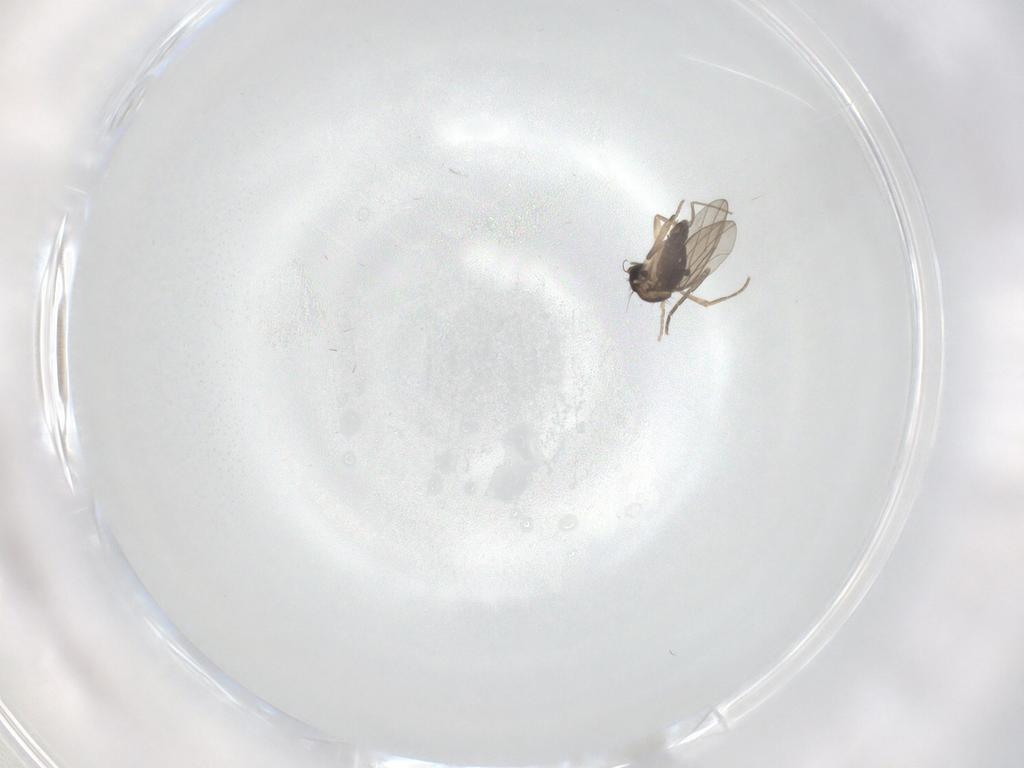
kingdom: Animalia
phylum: Arthropoda
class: Insecta
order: Diptera
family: Phoridae
